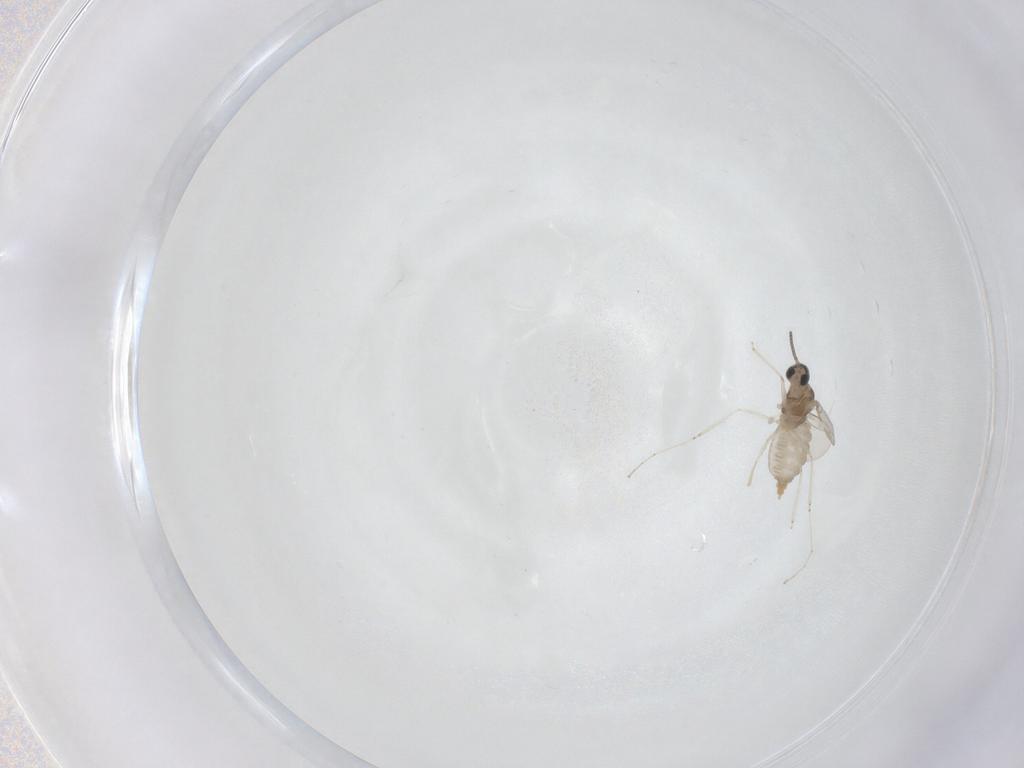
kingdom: Animalia
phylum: Arthropoda
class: Insecta
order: Diptera
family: Cecidomyiidae
